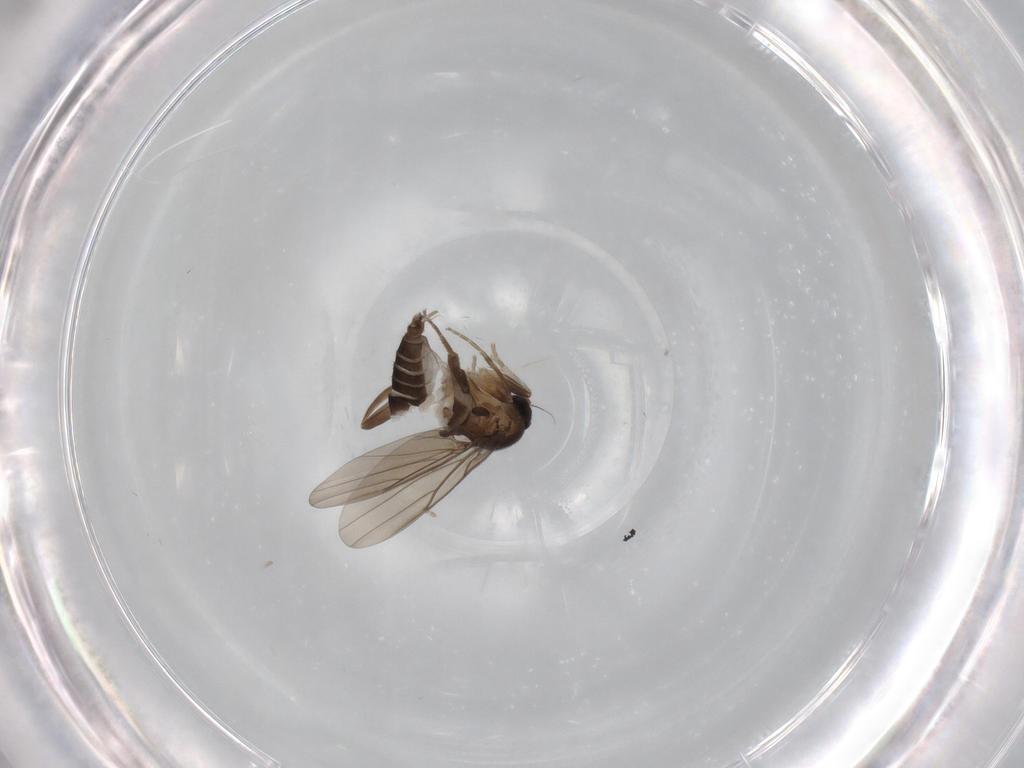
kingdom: Animalia
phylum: Arthropoda
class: Insecta
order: Diptera
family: Phoridae
